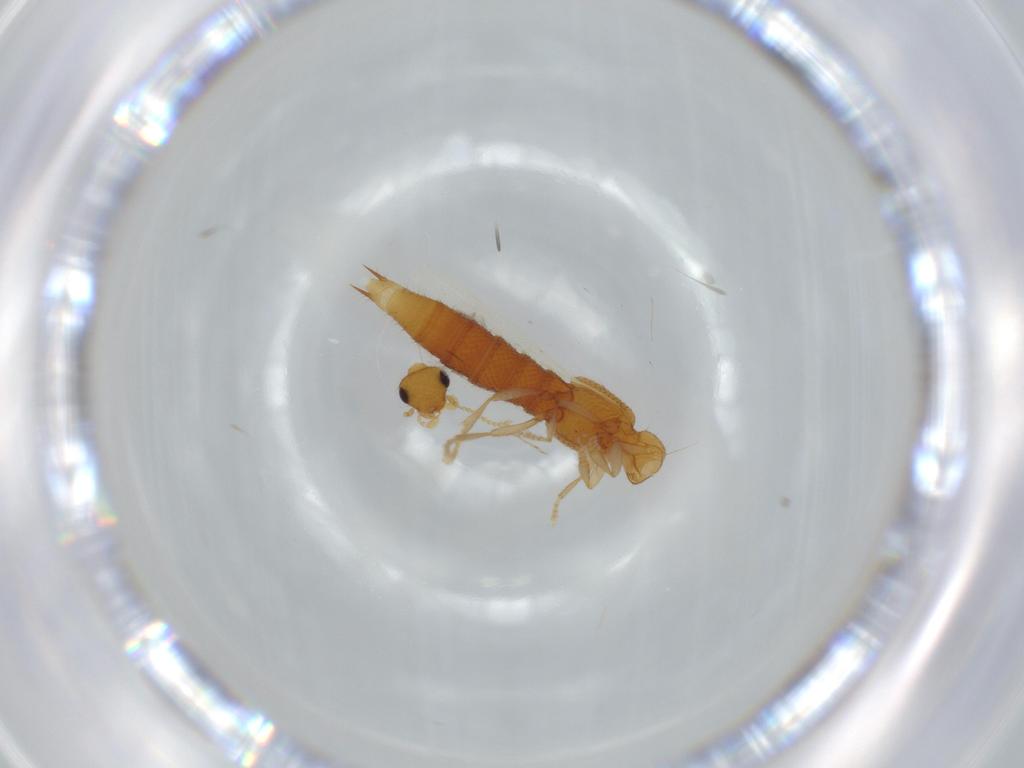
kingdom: Animalia
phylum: Arthropoda
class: Insecta
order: Coleoptera
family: Staphylinidae
